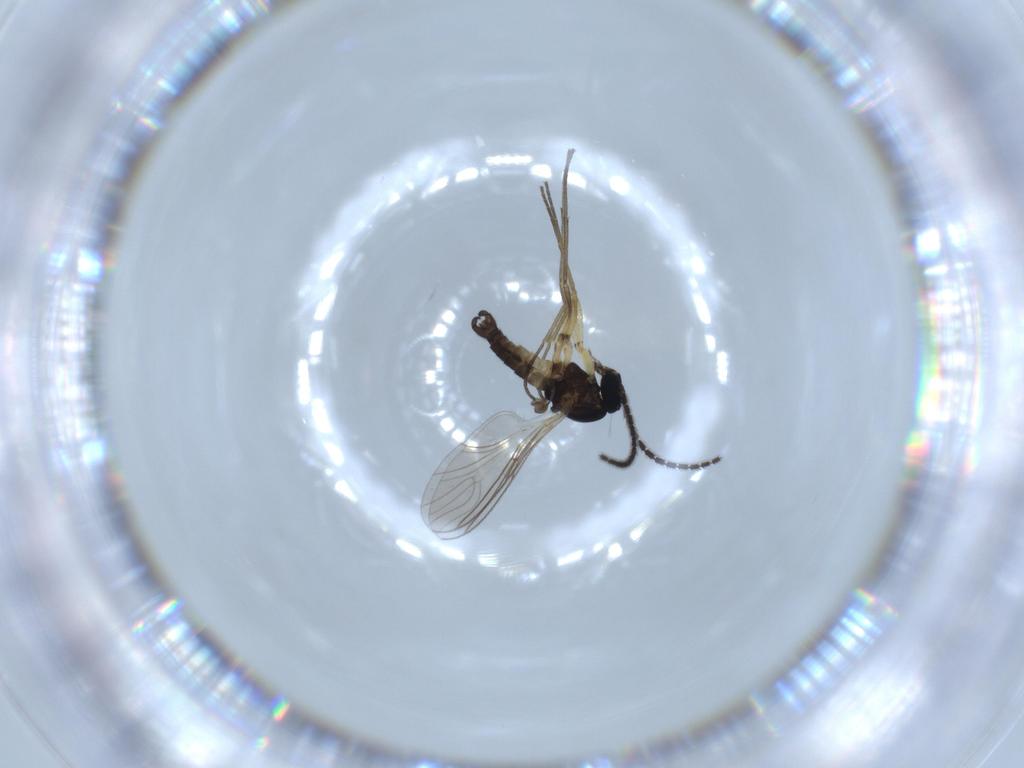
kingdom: Animalia
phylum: Arthropoda
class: Insecta
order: Diptera
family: Sciaridae
